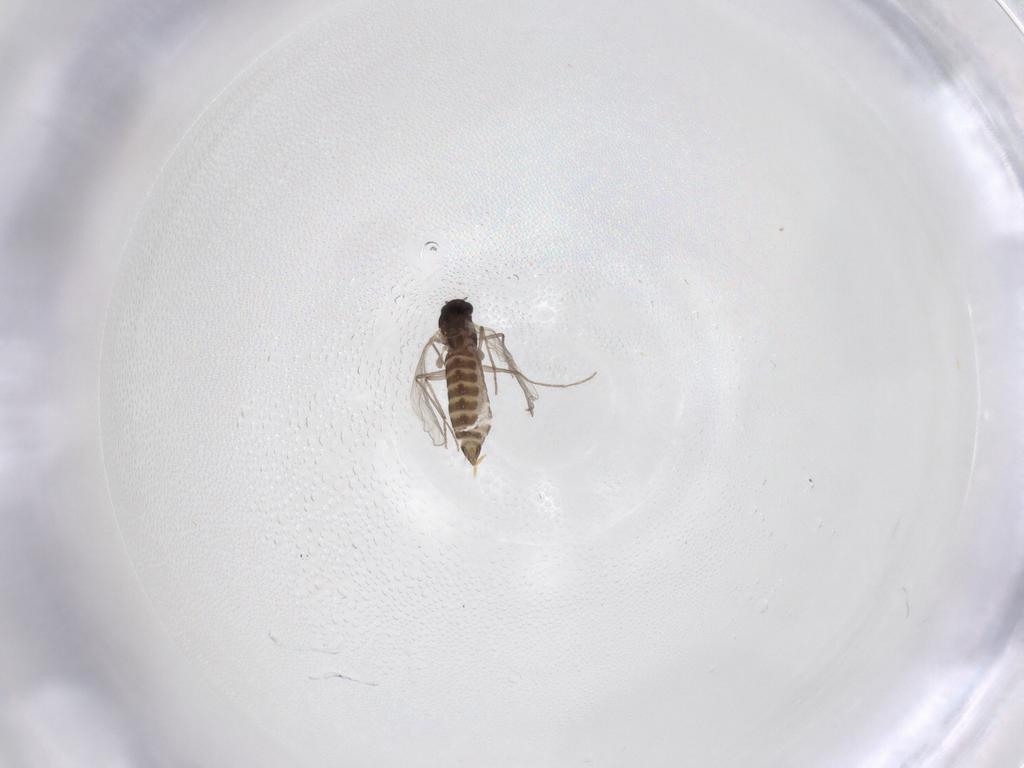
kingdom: Animalia
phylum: Arthropoda
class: Insecta
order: Diptera
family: Chironomidae
